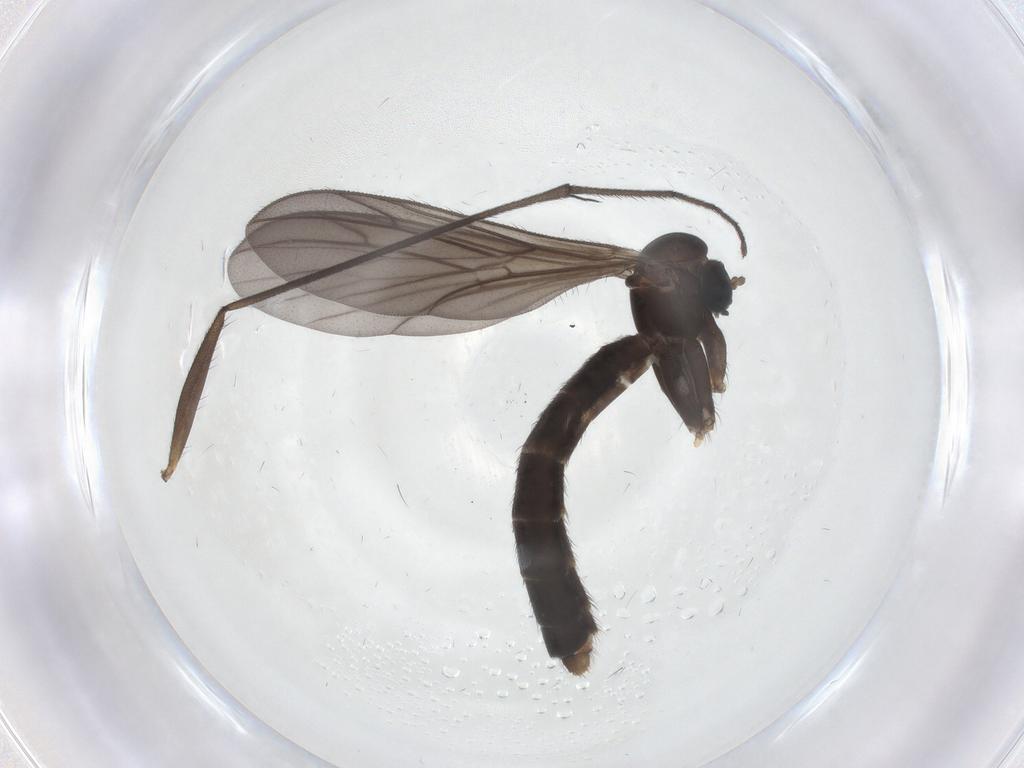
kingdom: Animalia
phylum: Arthropoda
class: Insecta
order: Diptera
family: Keroplatidae
